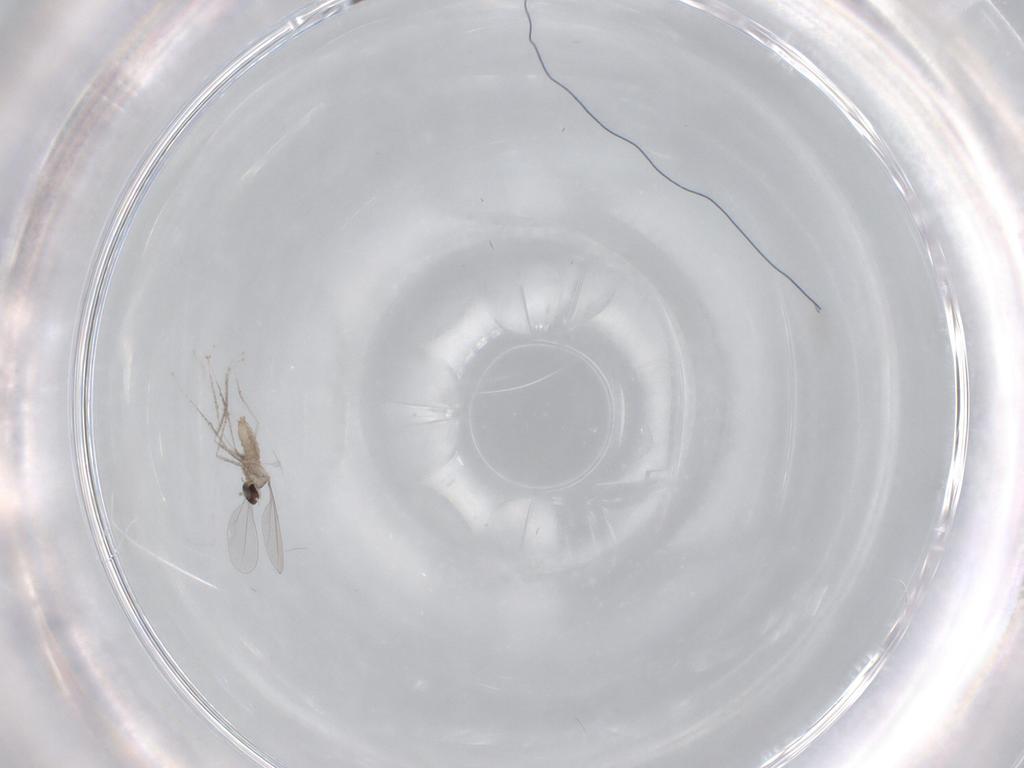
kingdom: Animalia
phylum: Arthropoda
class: Insecta
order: Diptera
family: Cecidomyiidae
